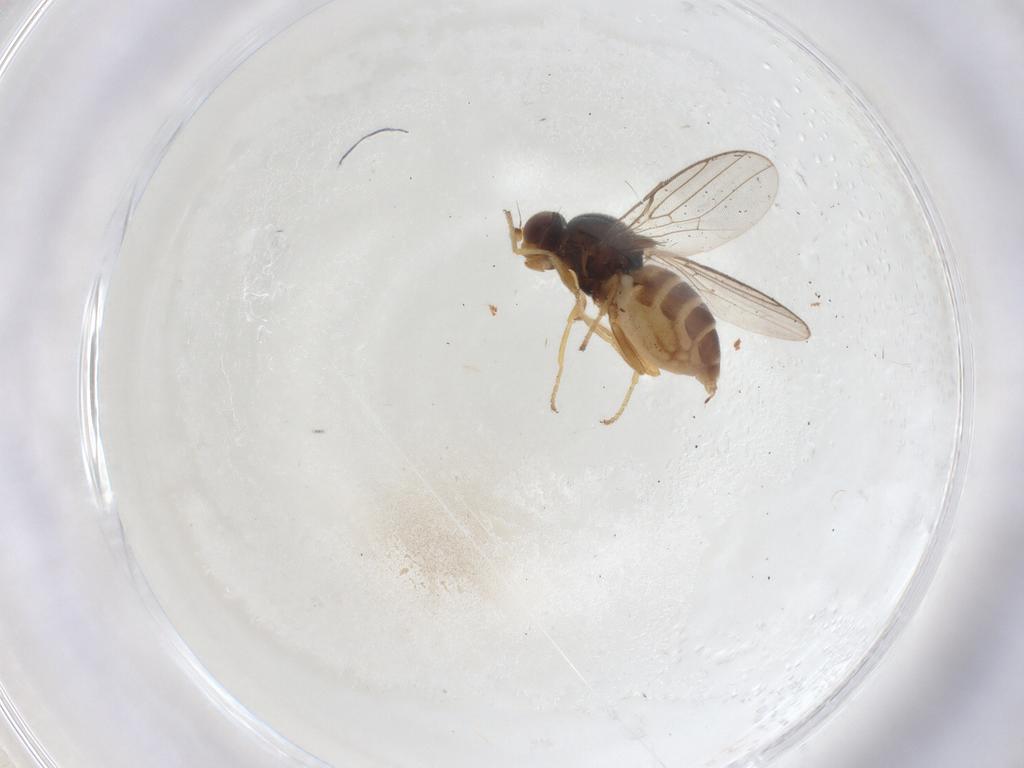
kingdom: Animalia
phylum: Arthropoda
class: Insecta
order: Diptera
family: Chloropidae
